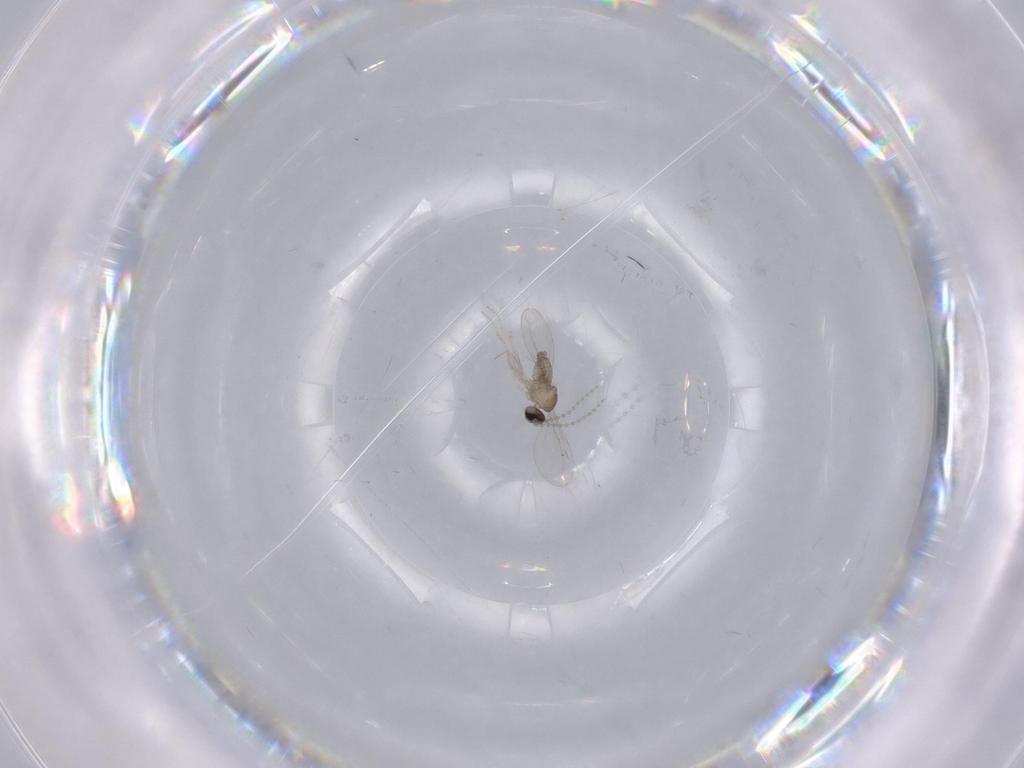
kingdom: Animalia
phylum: Arthropoda
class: Insecta
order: Diptera
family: Cecidomyiidae
